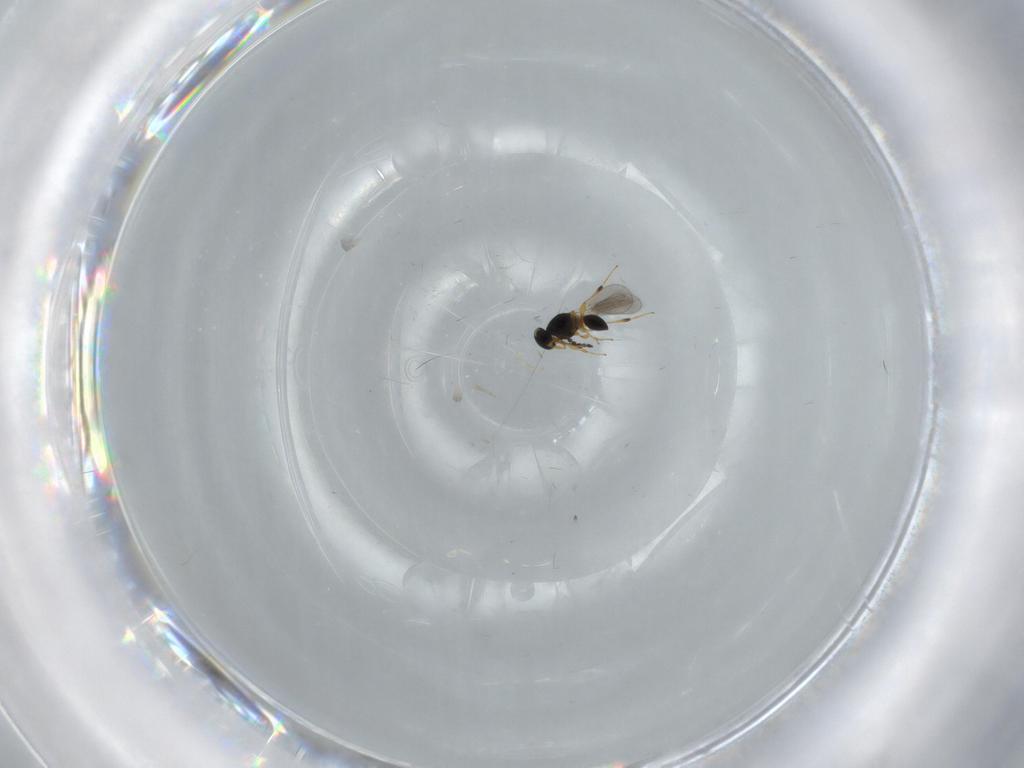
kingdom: Animalia
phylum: Arthropoda
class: Insecta
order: Hymenoptera
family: Platygastridae
